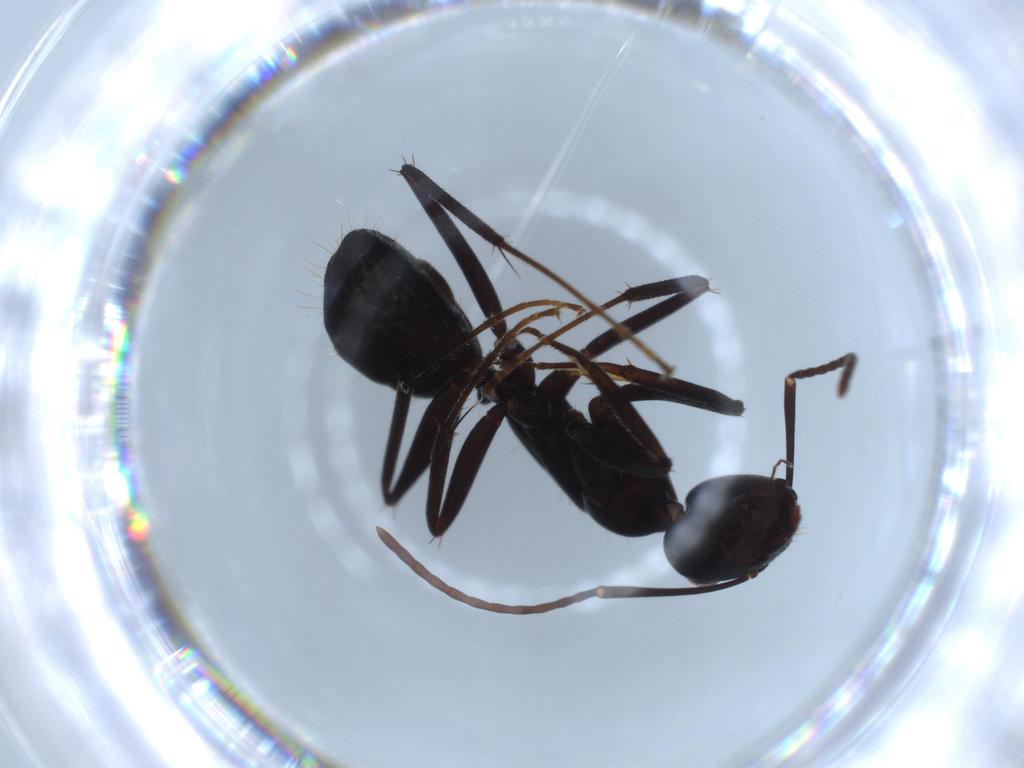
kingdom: Animalia
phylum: Arthropoda
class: Insecta
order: Hymenoptera
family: Formicidae
